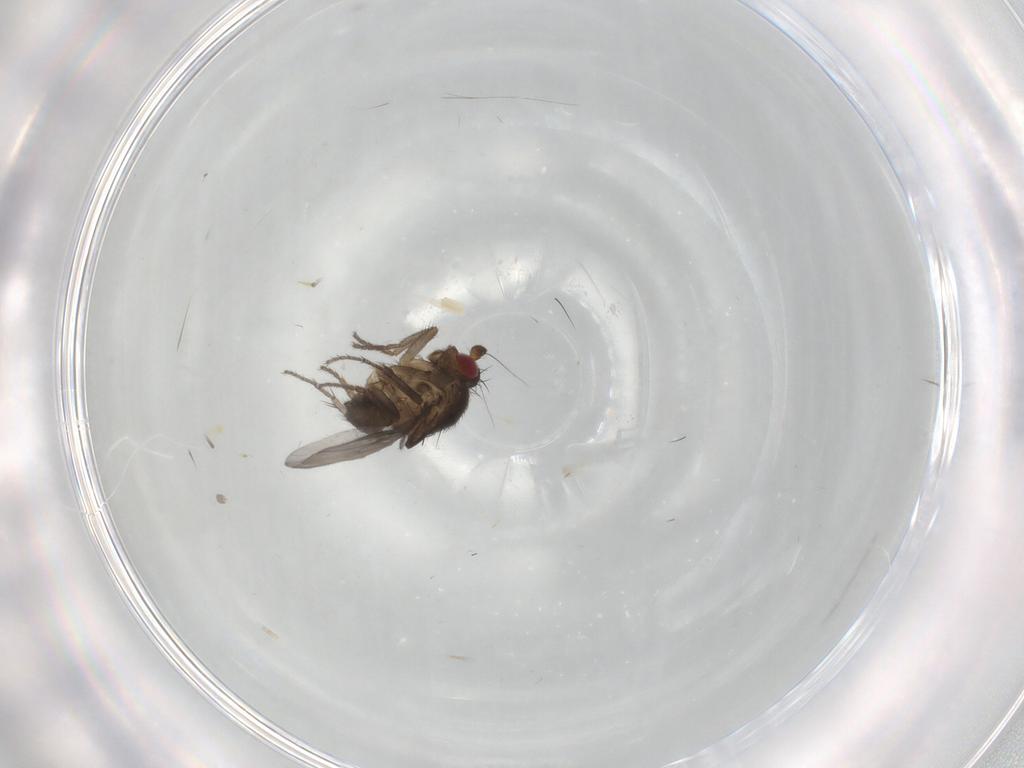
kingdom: Animalia
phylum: Arthropoda
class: Insecta
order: Diptera
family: Sphaeroceridae
